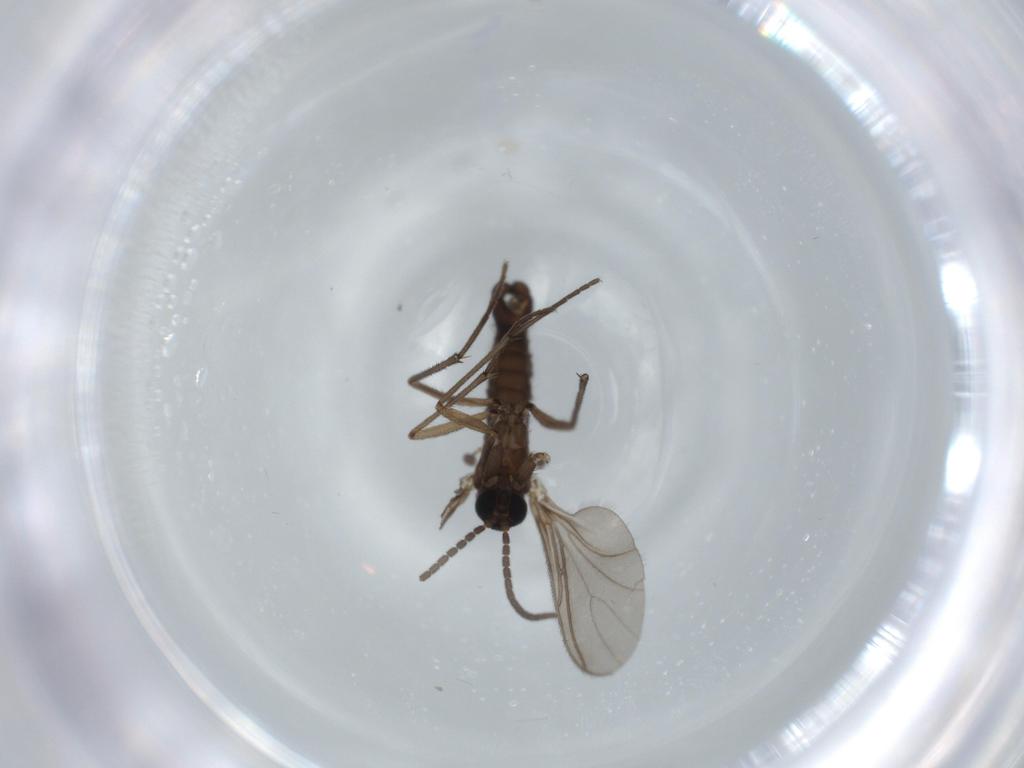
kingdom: Animalia
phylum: Arthropoda
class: Insecta
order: Diptera
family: Sciaridae
